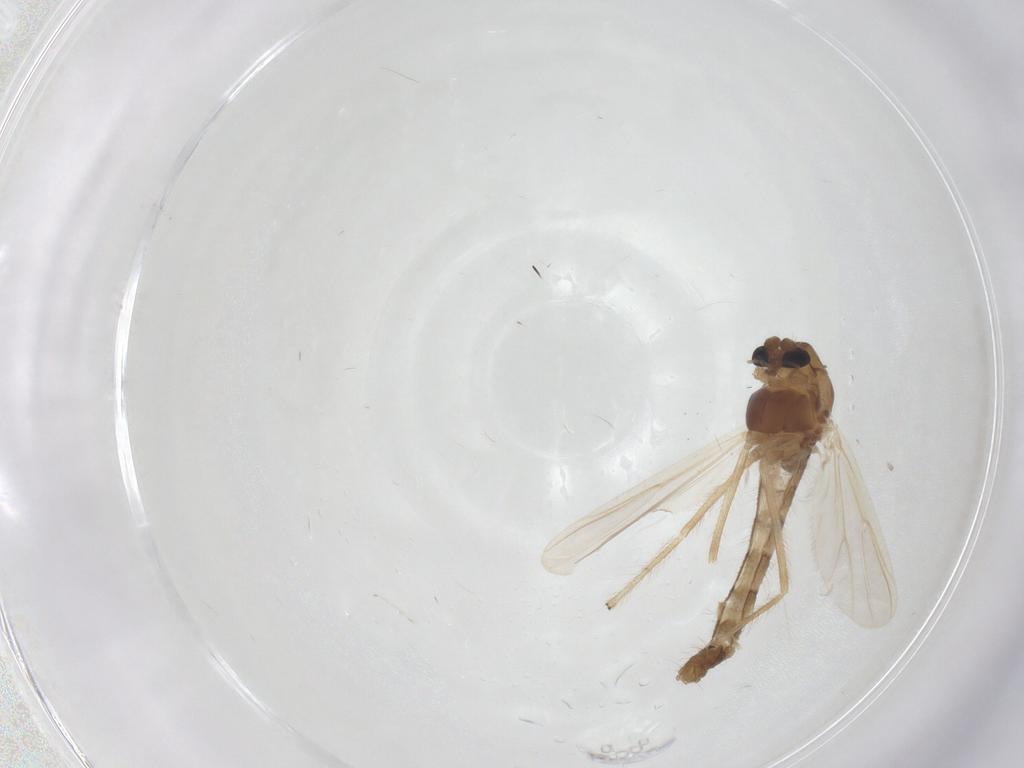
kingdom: Animalia
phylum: Arthropoda
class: Insecta
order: Diptera
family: Chironomidae
